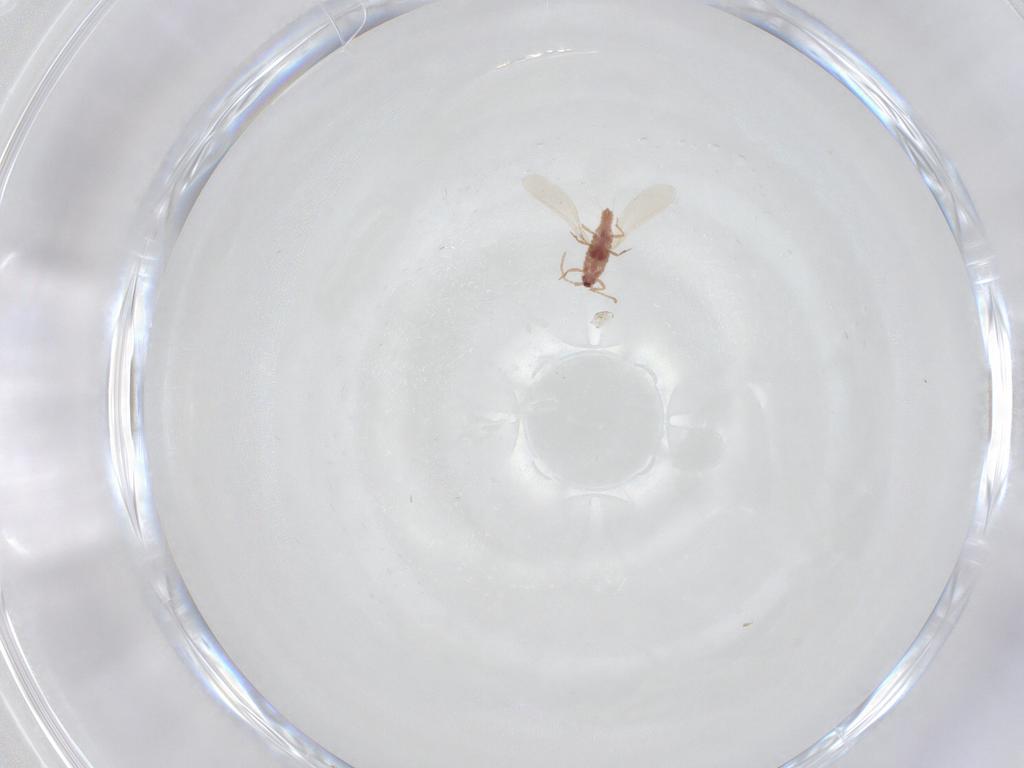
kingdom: Animalia
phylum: Arthropoda
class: Insecta
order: Hemiptera
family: Pseudococcidae
